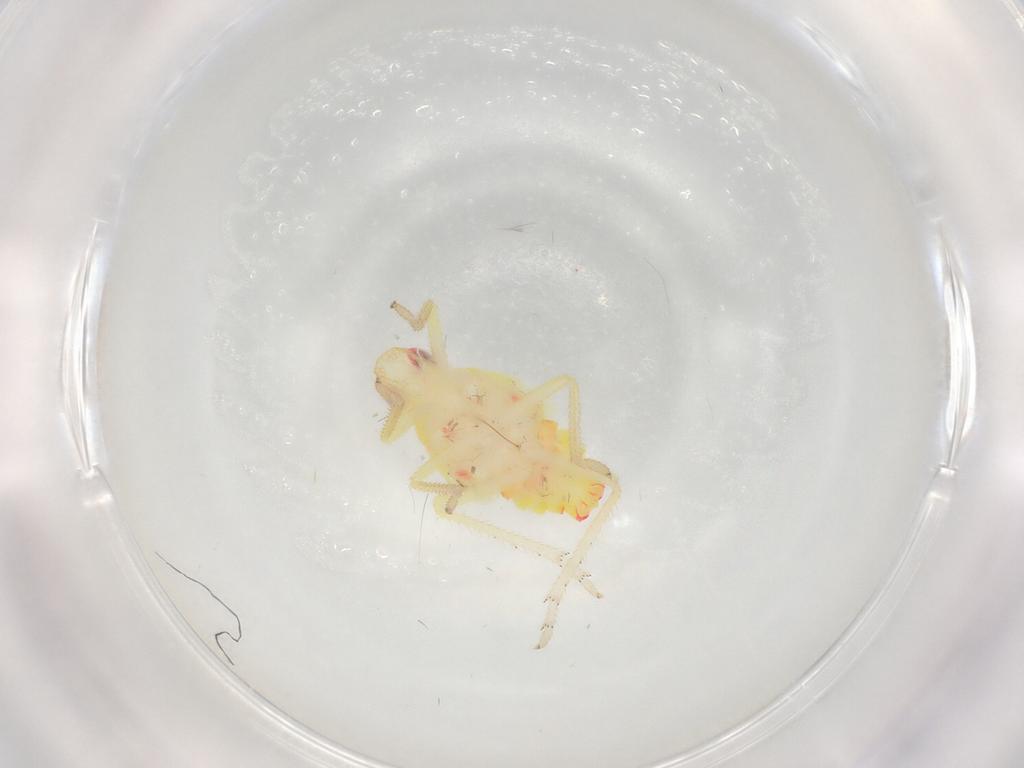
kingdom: Animalia
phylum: Arthropoda
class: Insecta
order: Hemiptera
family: Tropiduchidae
